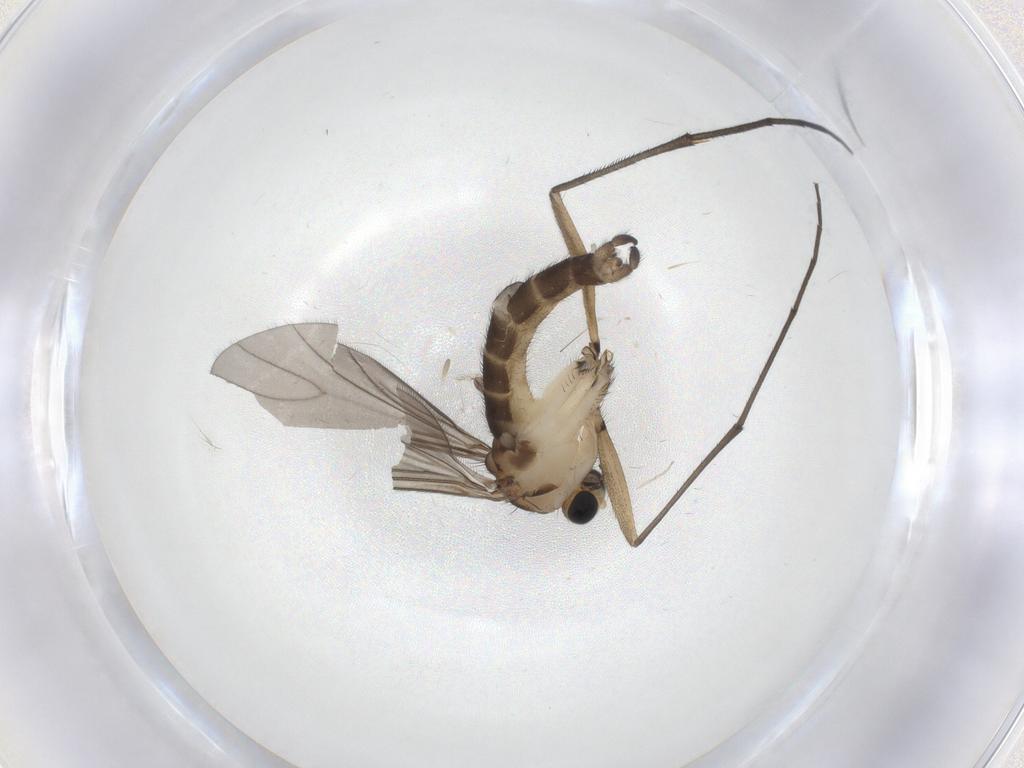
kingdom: Animalia
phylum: Arthropoda
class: Insecta
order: Diptera
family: Sciaridae
